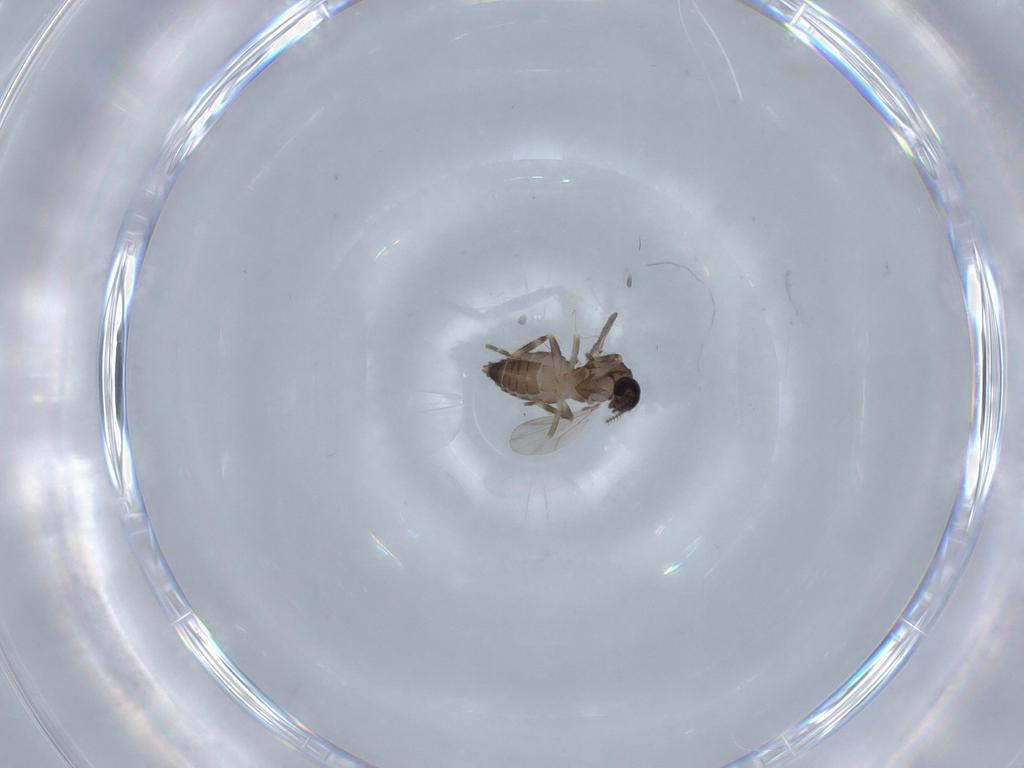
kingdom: Animalia
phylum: Arthropoda
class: Insecta
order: Diptera
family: Ceratopogonidae
